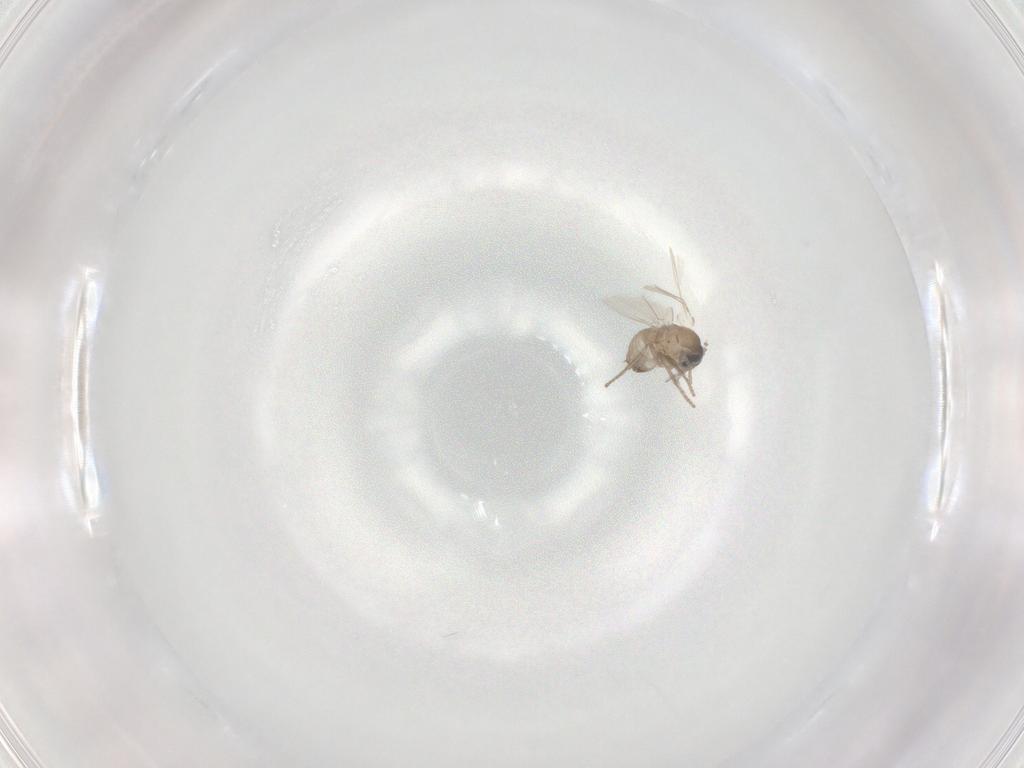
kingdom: Animalia
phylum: Arthropoda
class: Insecta
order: Diptera
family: Psychodidae
